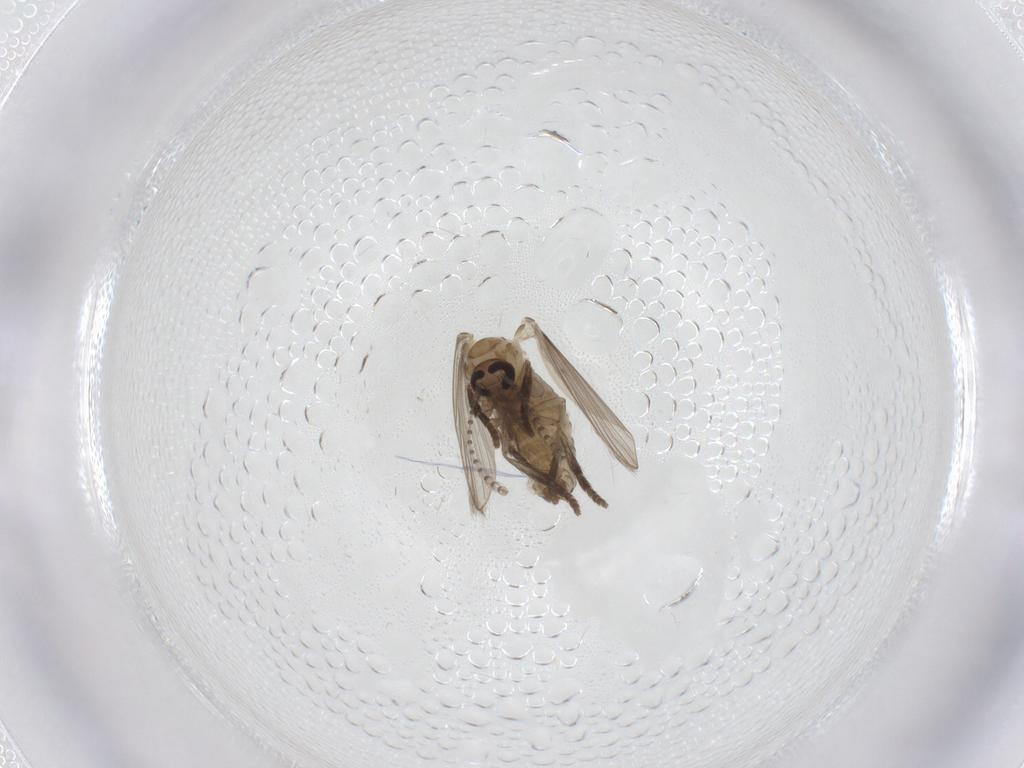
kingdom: Animalia
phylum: Arthropoda
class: Insecta
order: Diptera
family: Psychodidae
